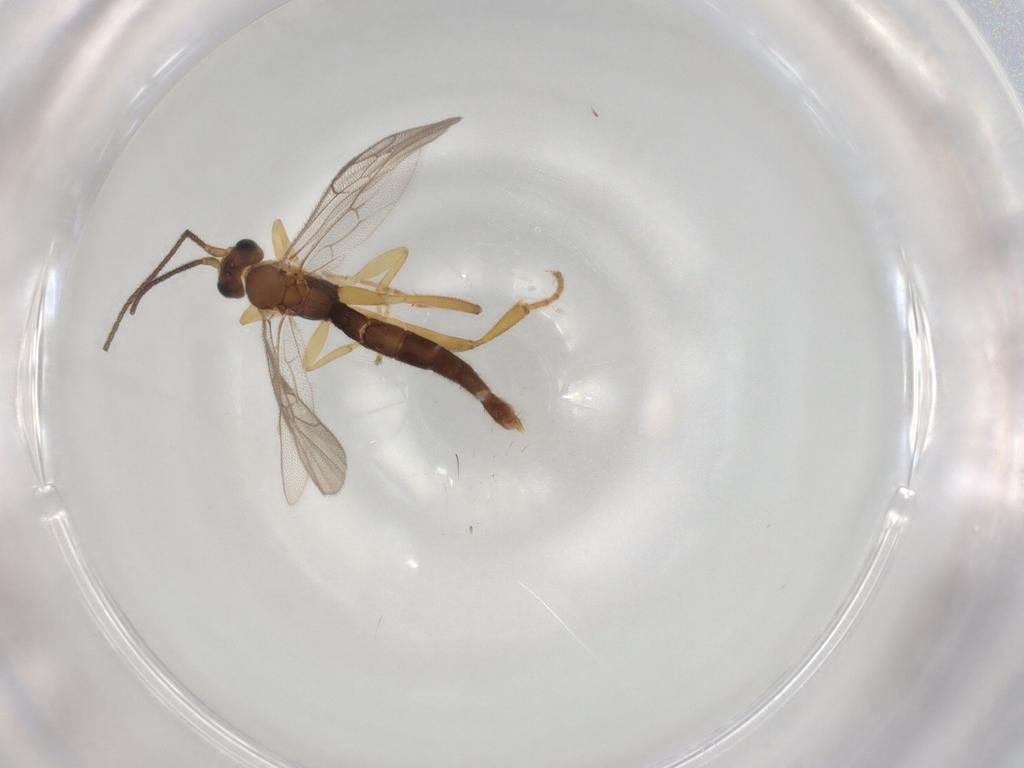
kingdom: Animalia
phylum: Arthropoda
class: Insecta
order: Hymenoptera
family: Ichneumonidae
